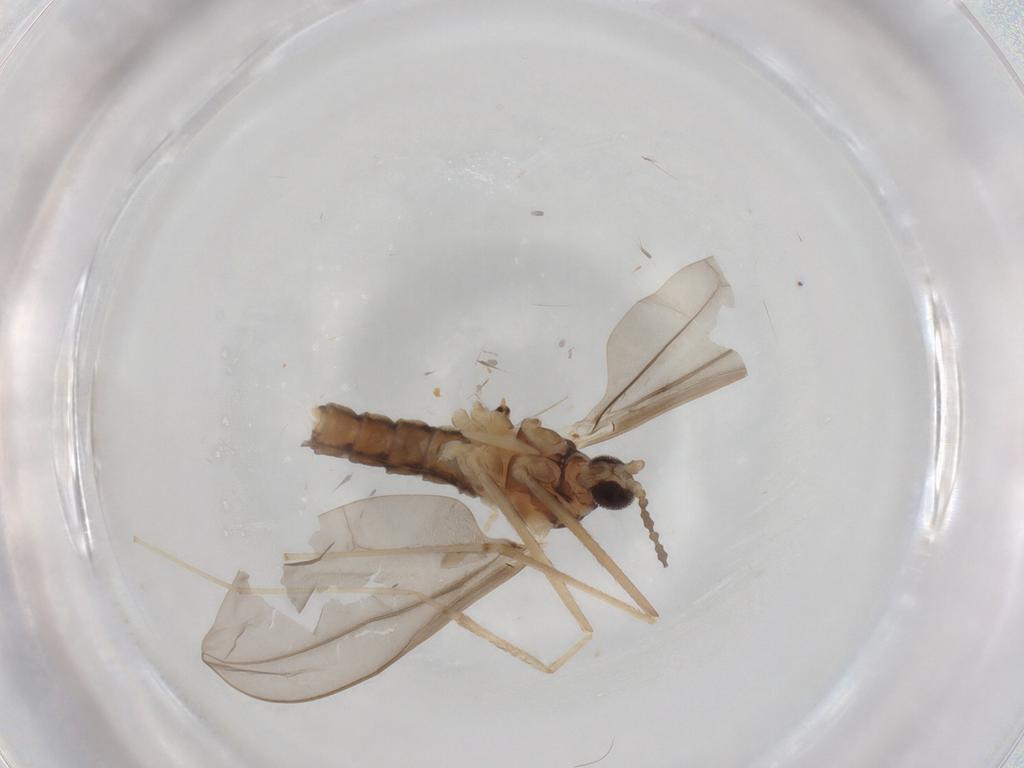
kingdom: Animalia
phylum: Arthropoda
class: Insecta
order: Diptera
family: Cecidomyiidae
